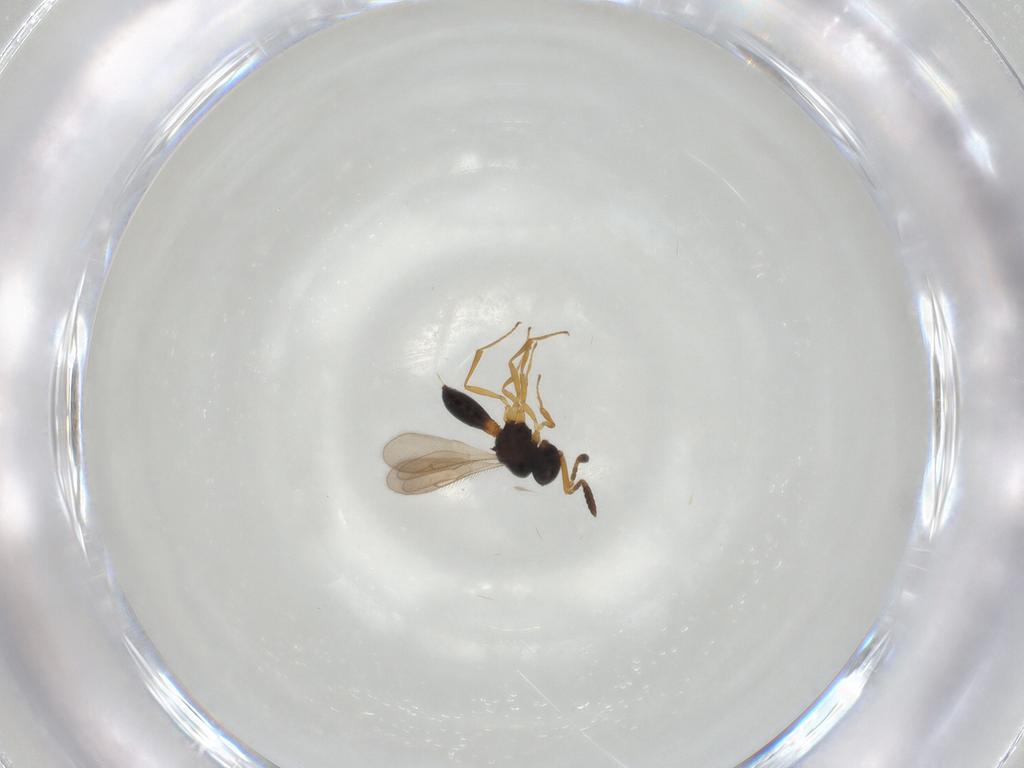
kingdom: Animalia
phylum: Arthropoda
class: Insecta
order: Hymenoptera
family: Scelionidae
